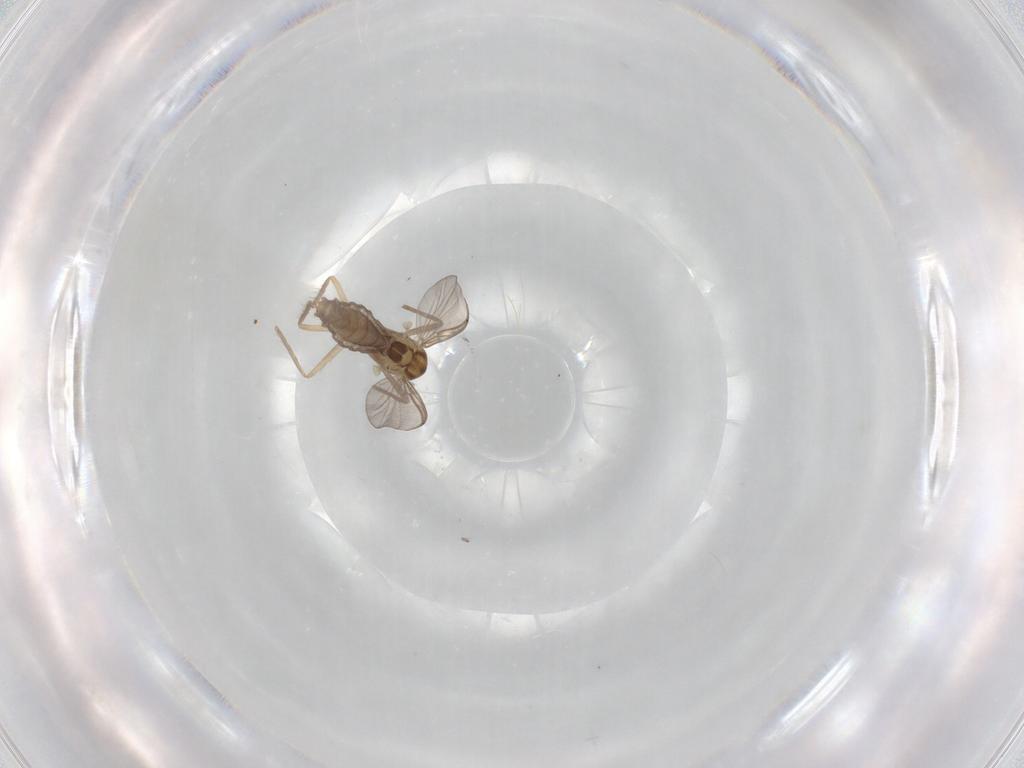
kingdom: Animalia
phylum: Arthropoda
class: Insecta
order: Diptera
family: Chironomidae
